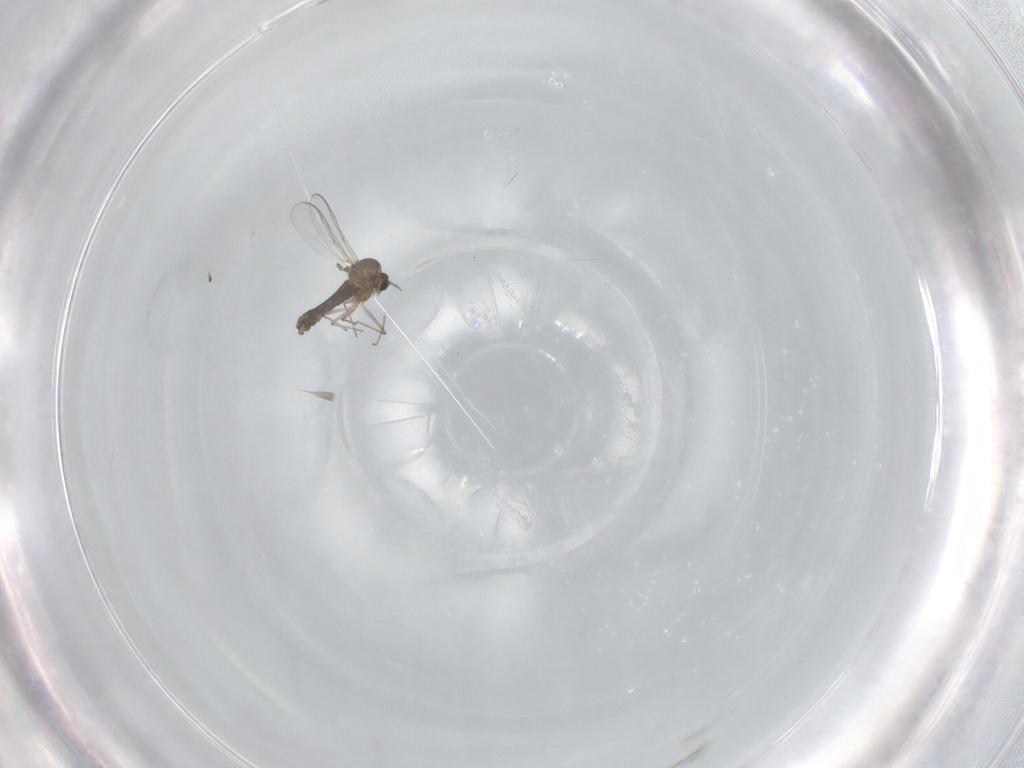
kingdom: Animalia
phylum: Arthropoda
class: Insecta
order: Diptera
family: Chironomidae
